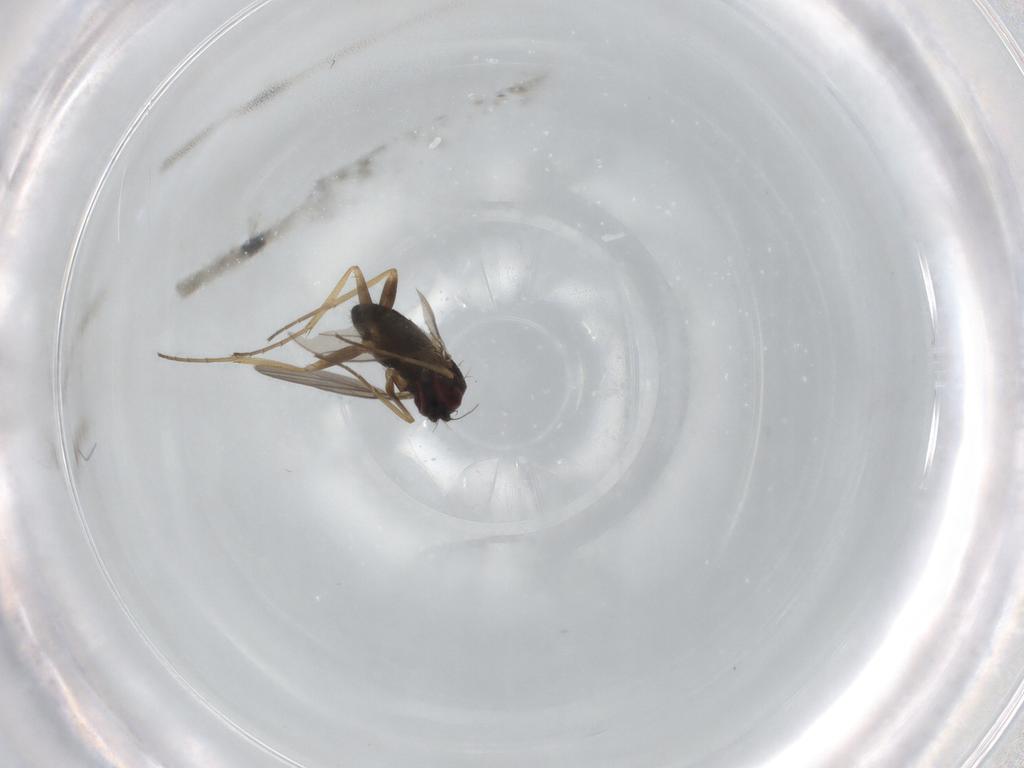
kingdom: Animalia
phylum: Arthropoda
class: Insecta
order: Diptera
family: Dolichopodidae
